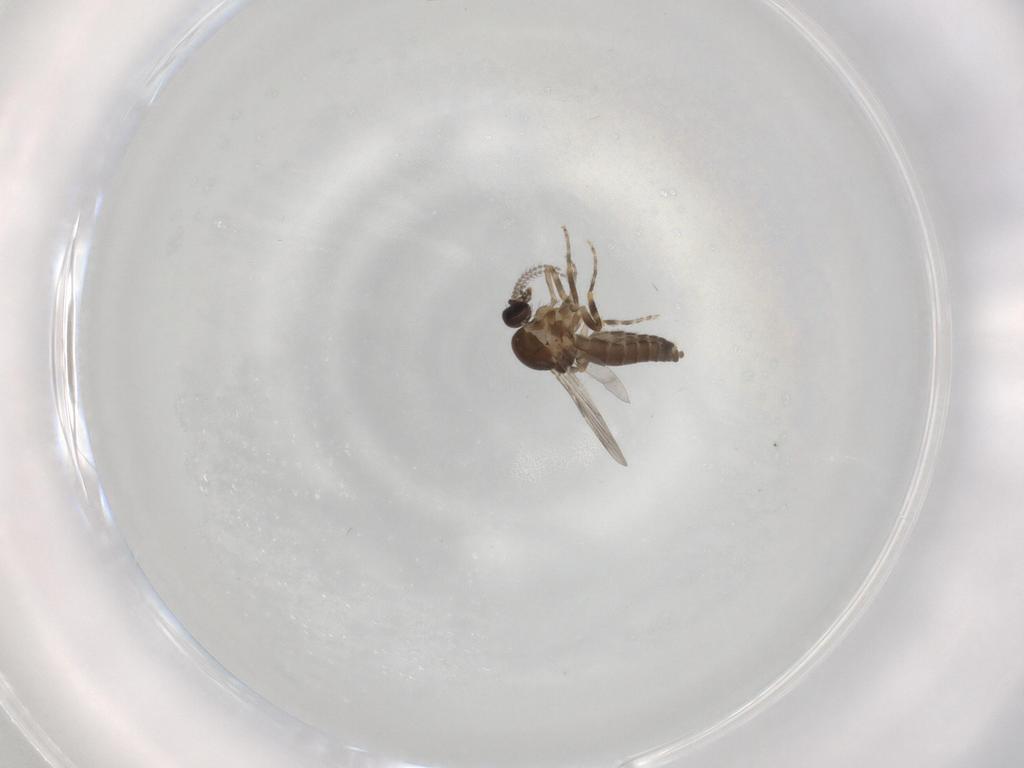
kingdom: Animalia
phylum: Arthropoda
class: Insecta
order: Diptera
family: Ceratopogonidae
